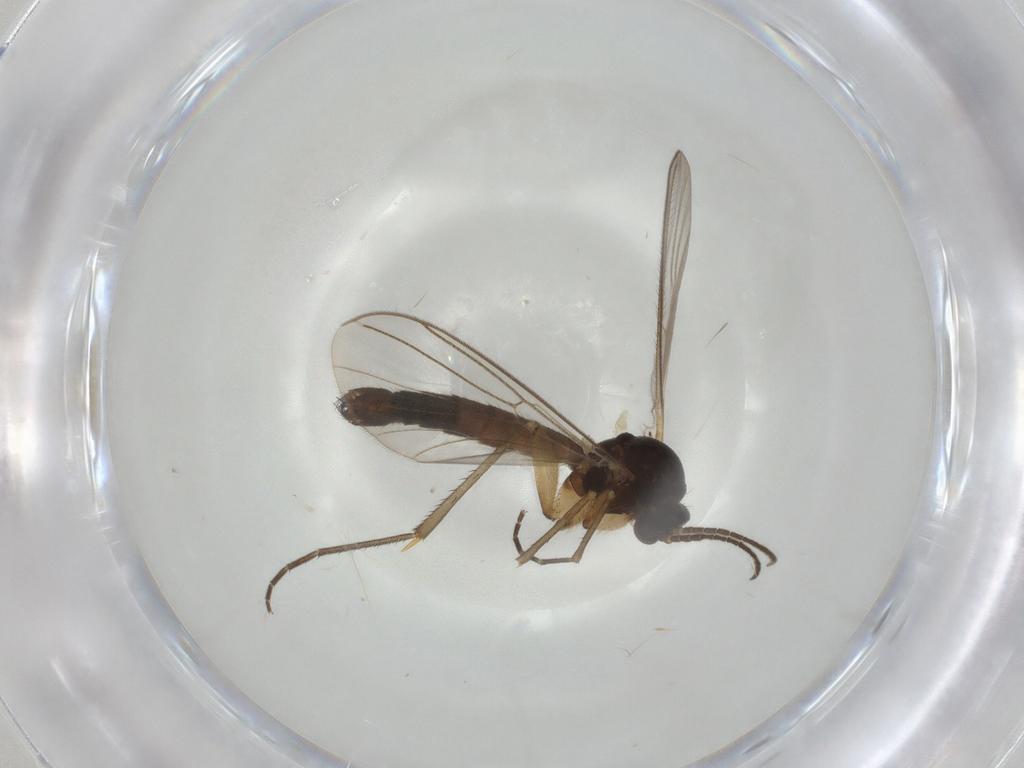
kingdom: Animalia
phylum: Arthropoda
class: Insecta
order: Diptera
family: Mycetophilidae
